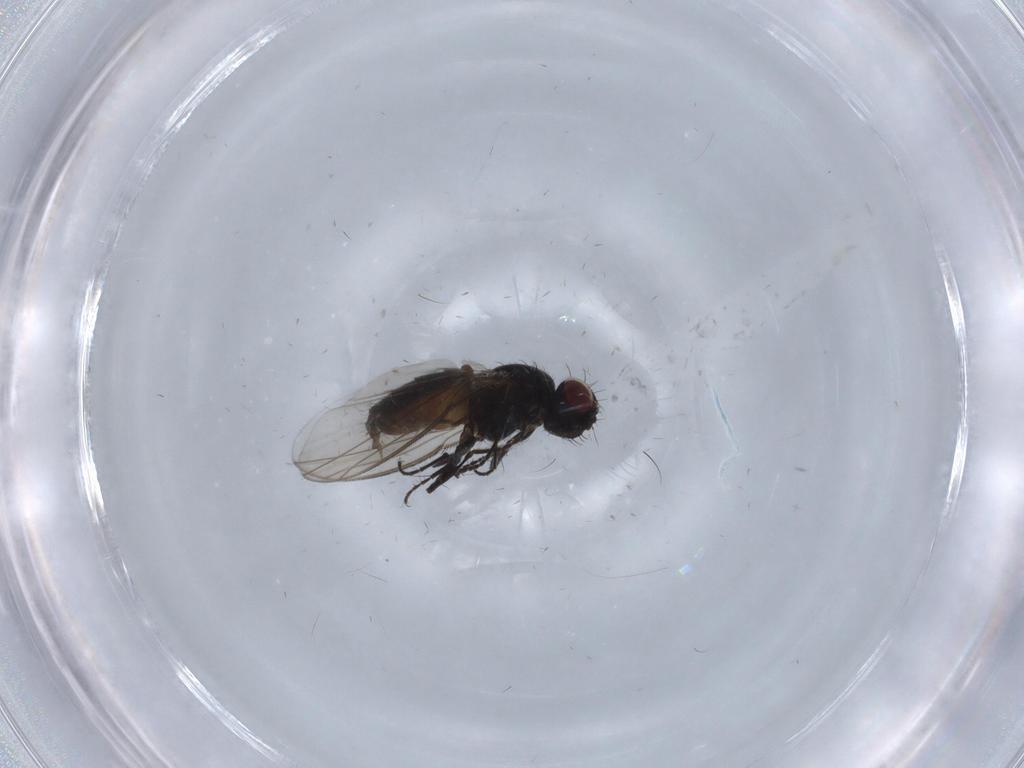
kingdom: Animalia
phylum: Arthropoda
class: Insecta
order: Diptera
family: Carnidae
